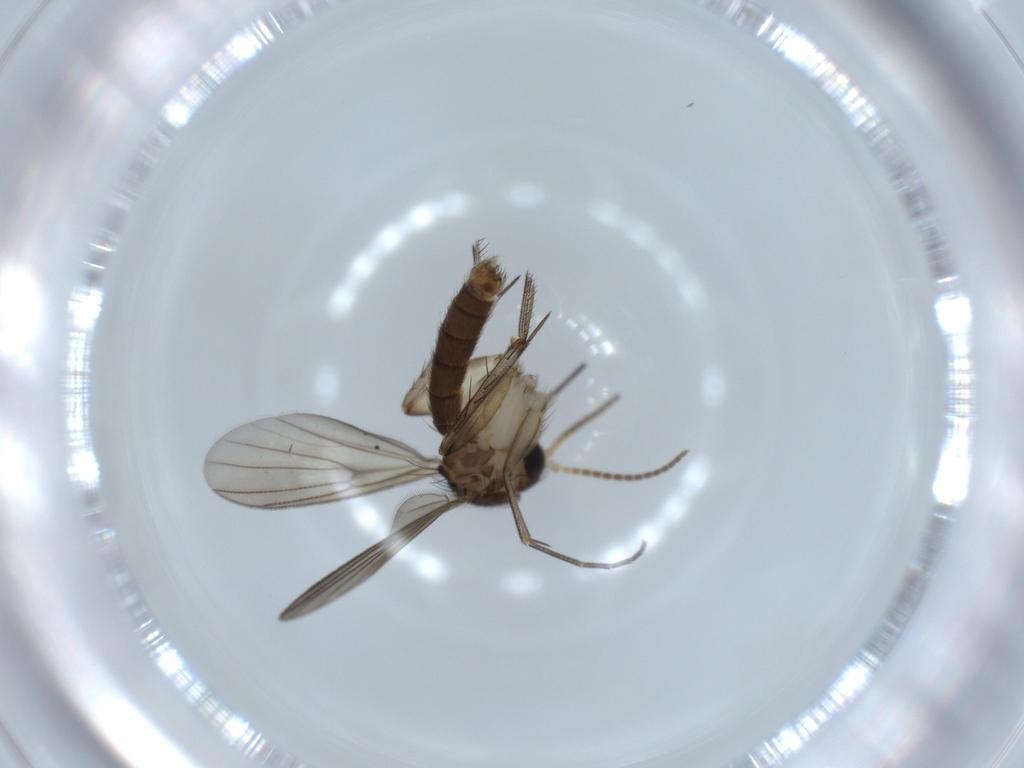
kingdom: Animalia
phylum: Arthropoda
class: Insecta
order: Diptera
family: Mycetophilidae
